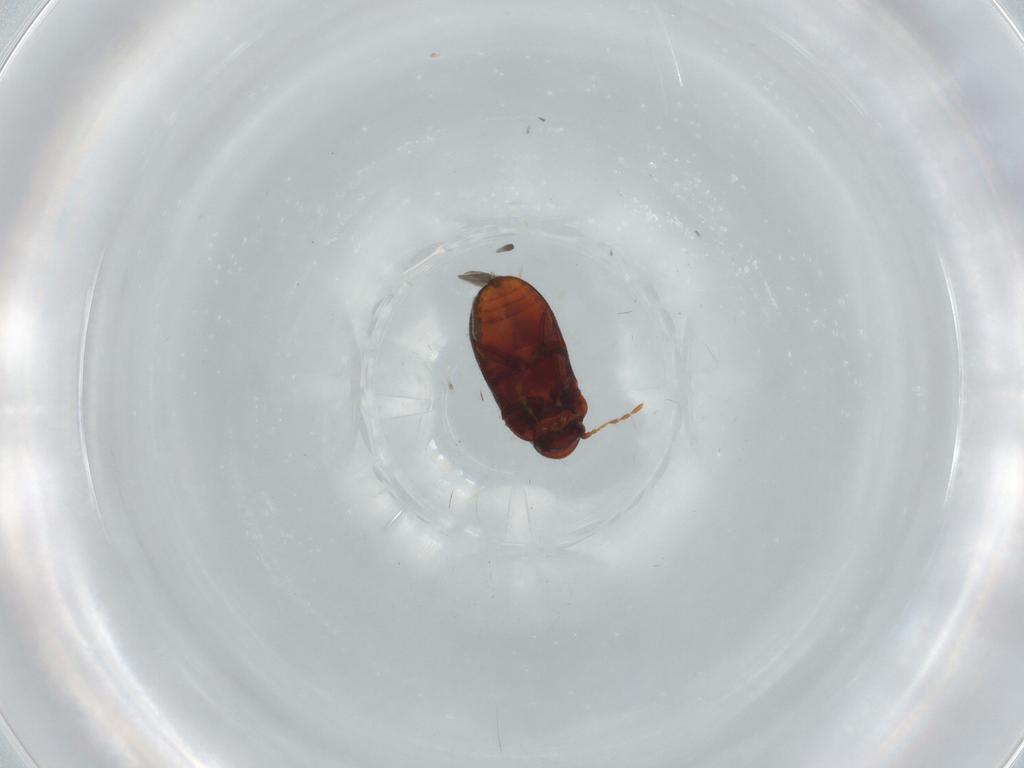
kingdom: Animalia
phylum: Arthropoda
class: Insecta
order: Coleoptera
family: Ptinidae
